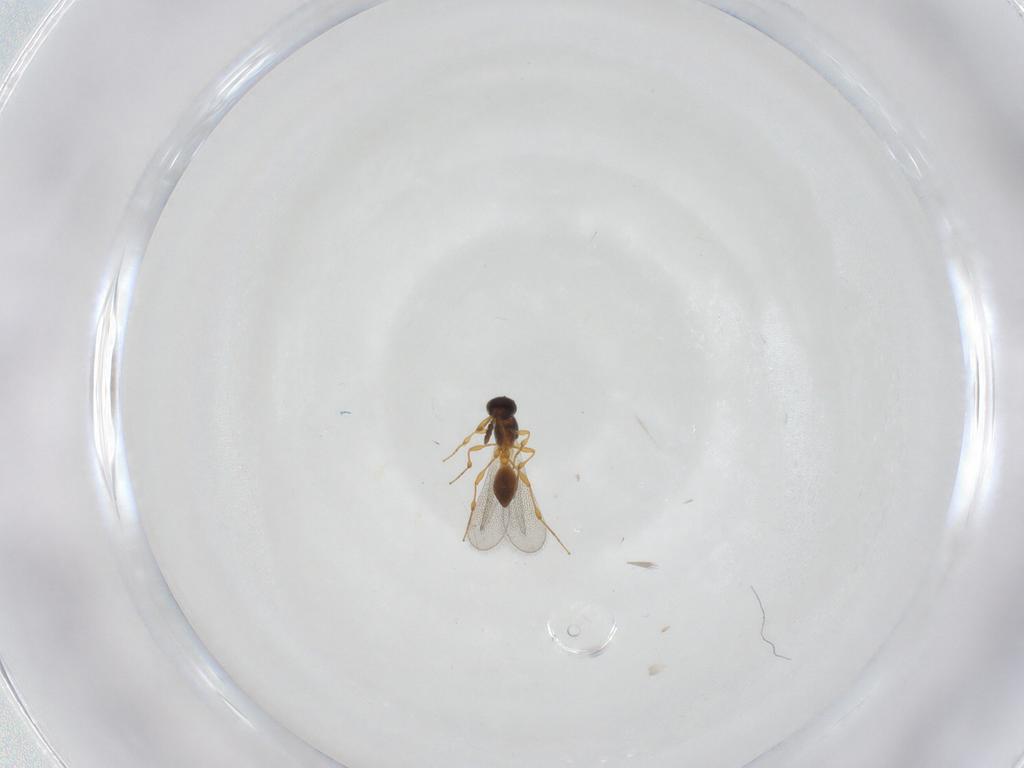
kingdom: Animalia
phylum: Arthropoda
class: Insecta
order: Hymenoptera
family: Platygastridae
